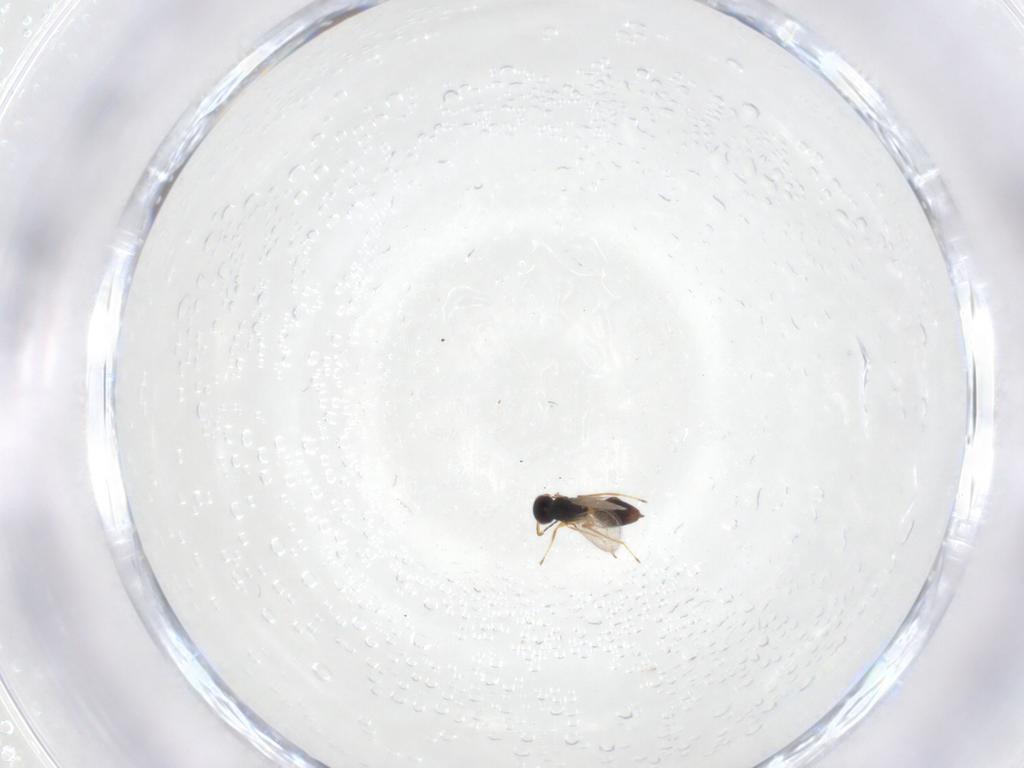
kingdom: Animalia
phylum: Arthropoda
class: Insecta
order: Hymenoptera
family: Mymaridae
